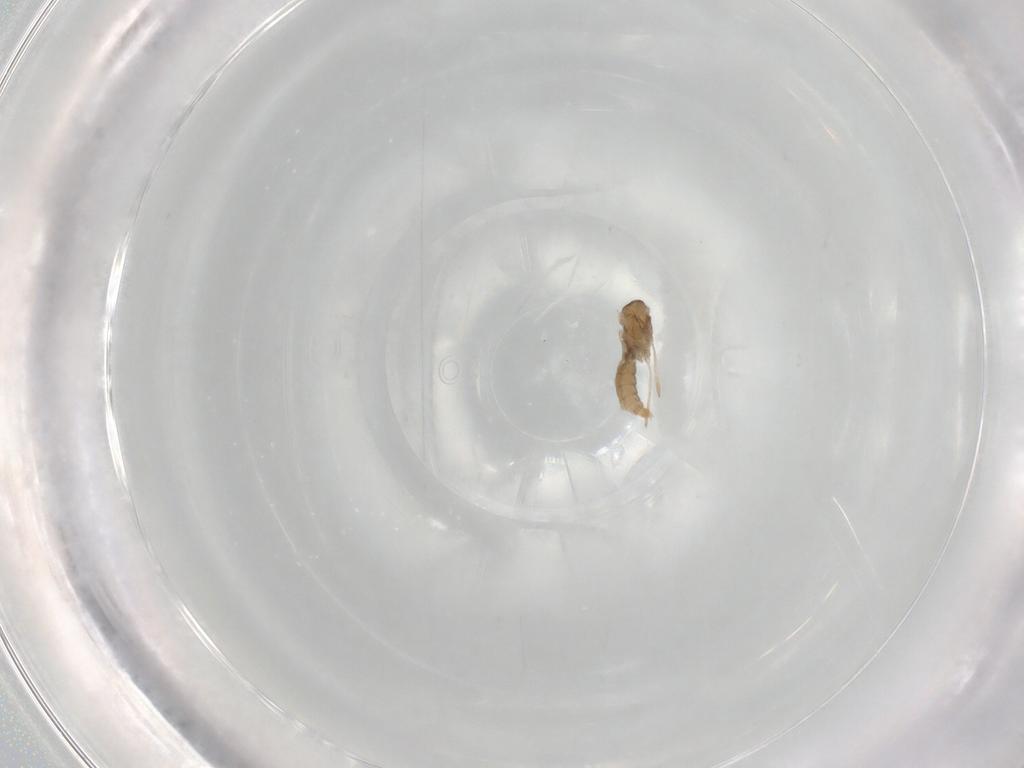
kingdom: Animalia
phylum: Arthropoda
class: Insecta
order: Diptera
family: Cecidomyiidae
